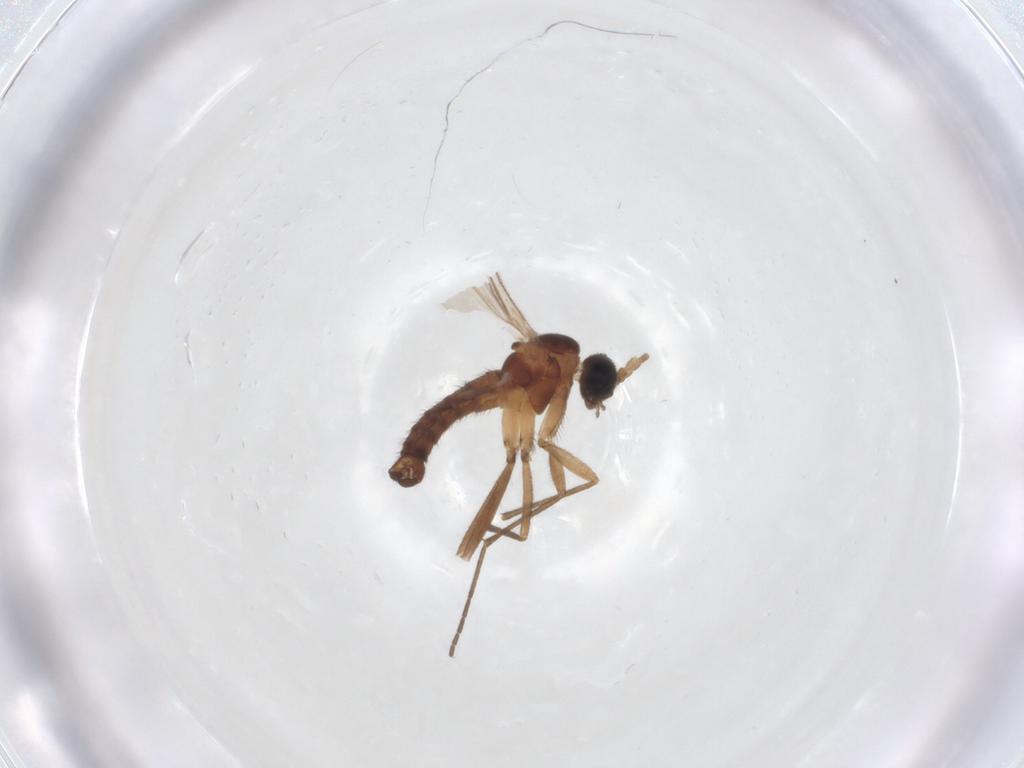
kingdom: Animalia
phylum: Arthropoda
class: Insecta
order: Diptera
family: Sciaridae
